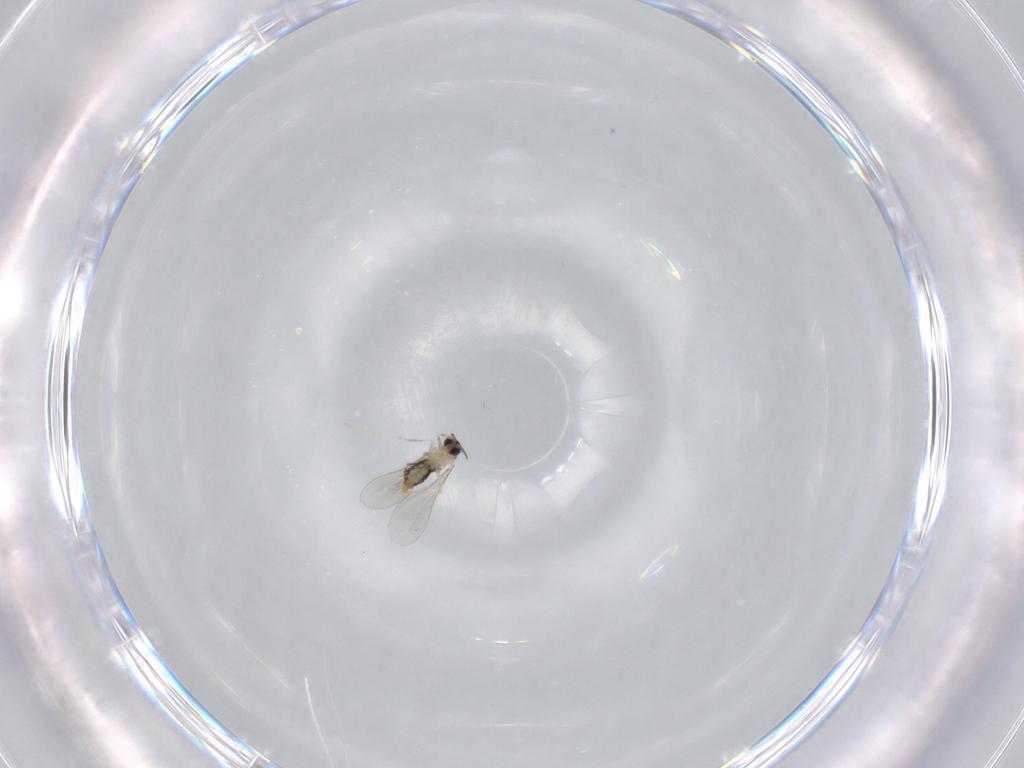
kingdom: Animalia
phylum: Arthropoda
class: Insecta
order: Diptera
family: Cecidomyiidae
